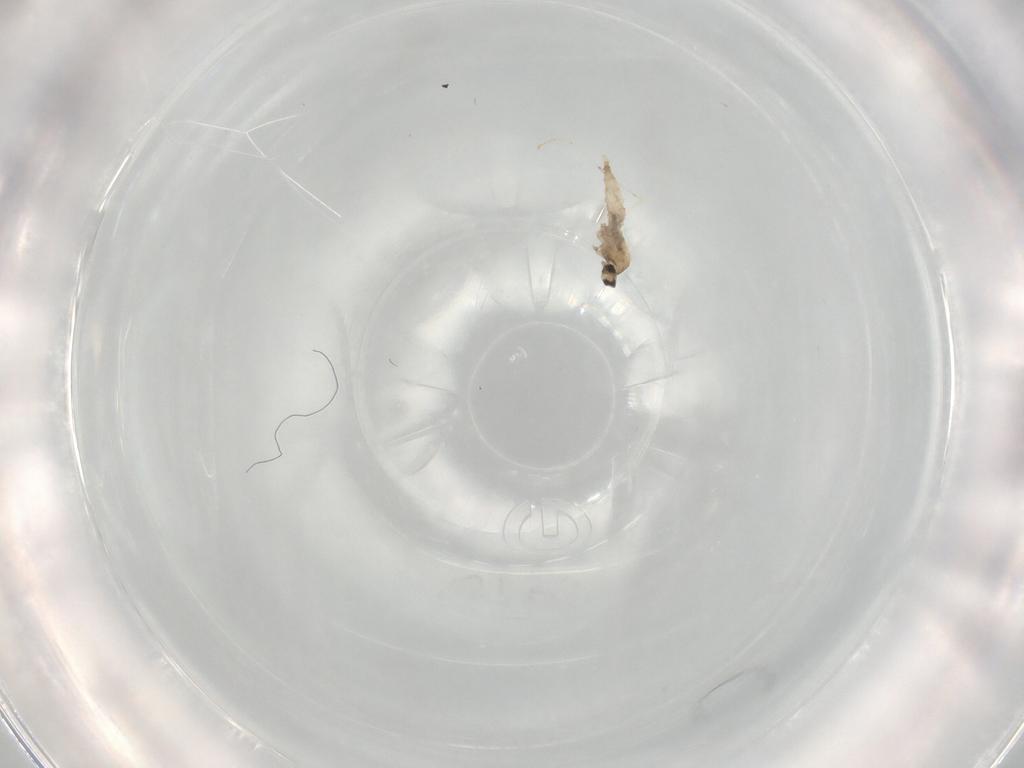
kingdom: Animalia
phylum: Arthropoda
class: Insecta
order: Diptera
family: Cecidomyiidae
